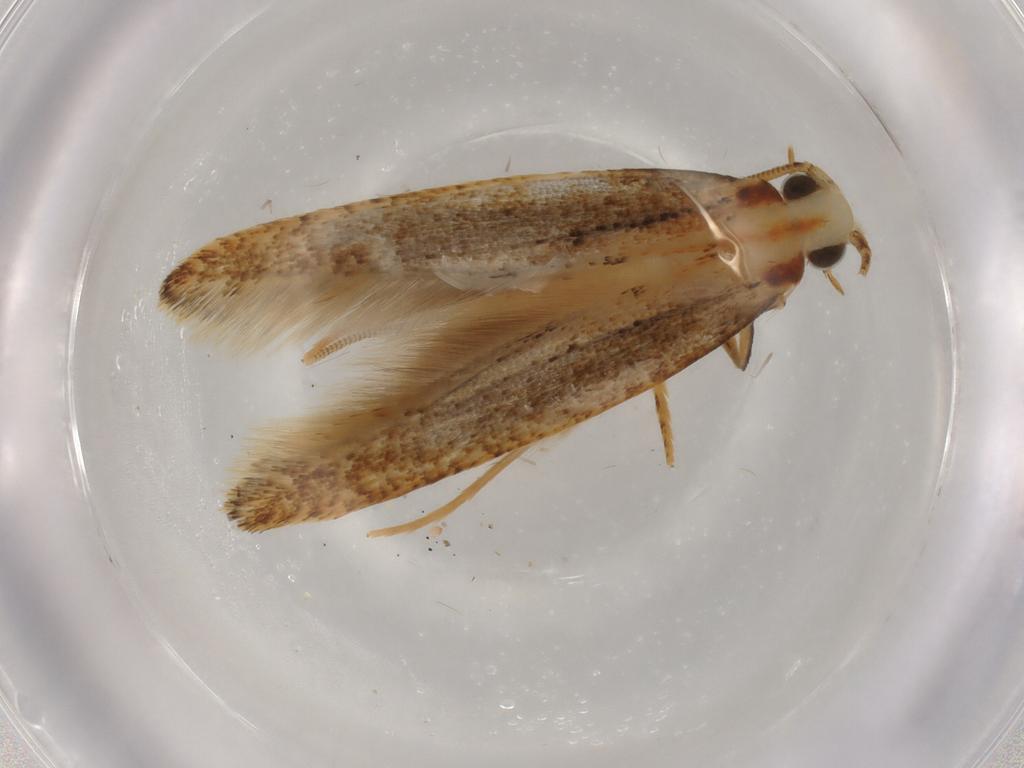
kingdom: Animalia
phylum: Arthropoda
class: Insecta
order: Lepidoptera
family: Tineidae
